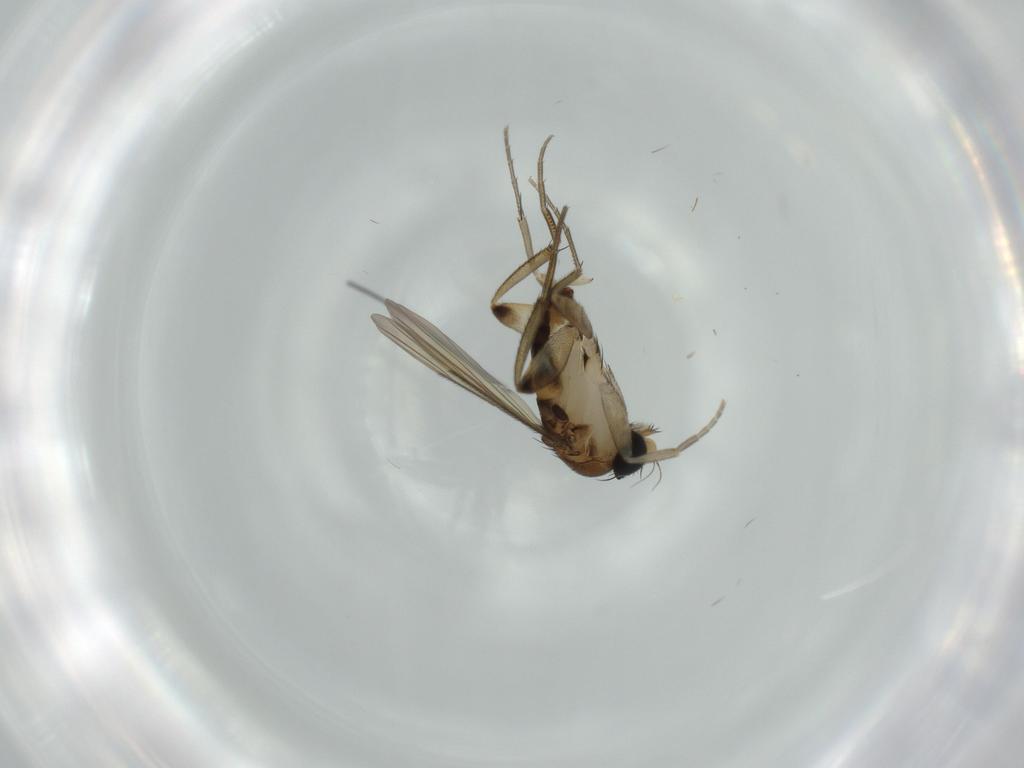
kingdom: Animalia
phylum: Arthropoda
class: Insecta
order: Diptera
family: Phoridae
